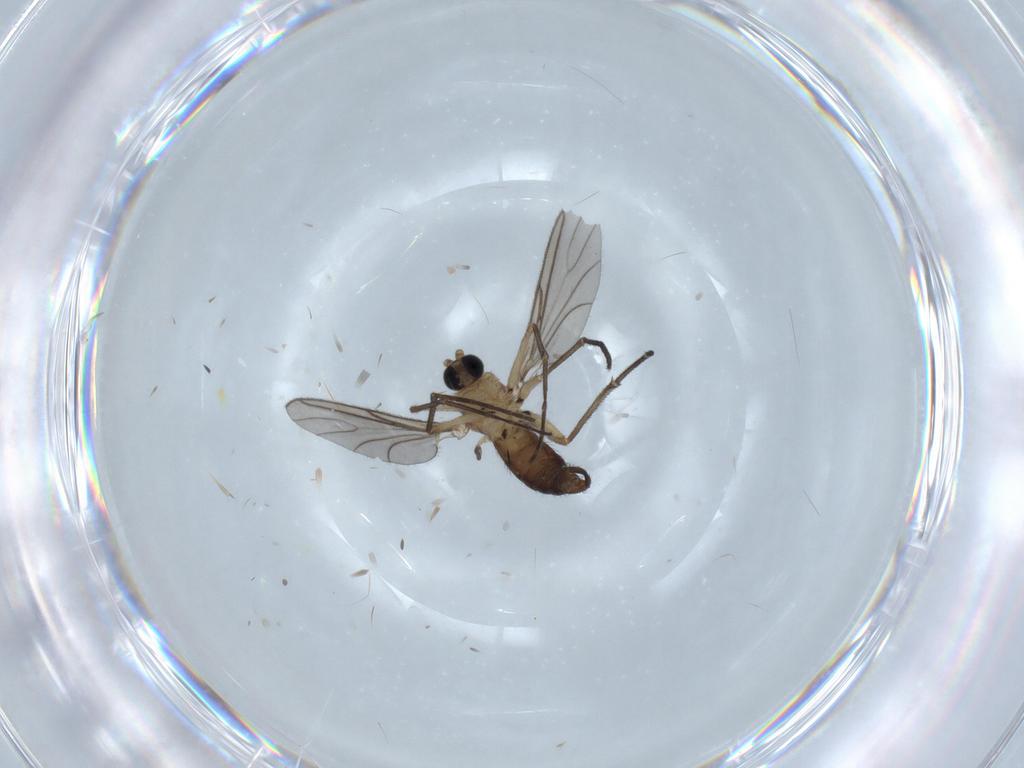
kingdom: Animalia
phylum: Arthropoda
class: Insecta
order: Diptera
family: Sciaridae
